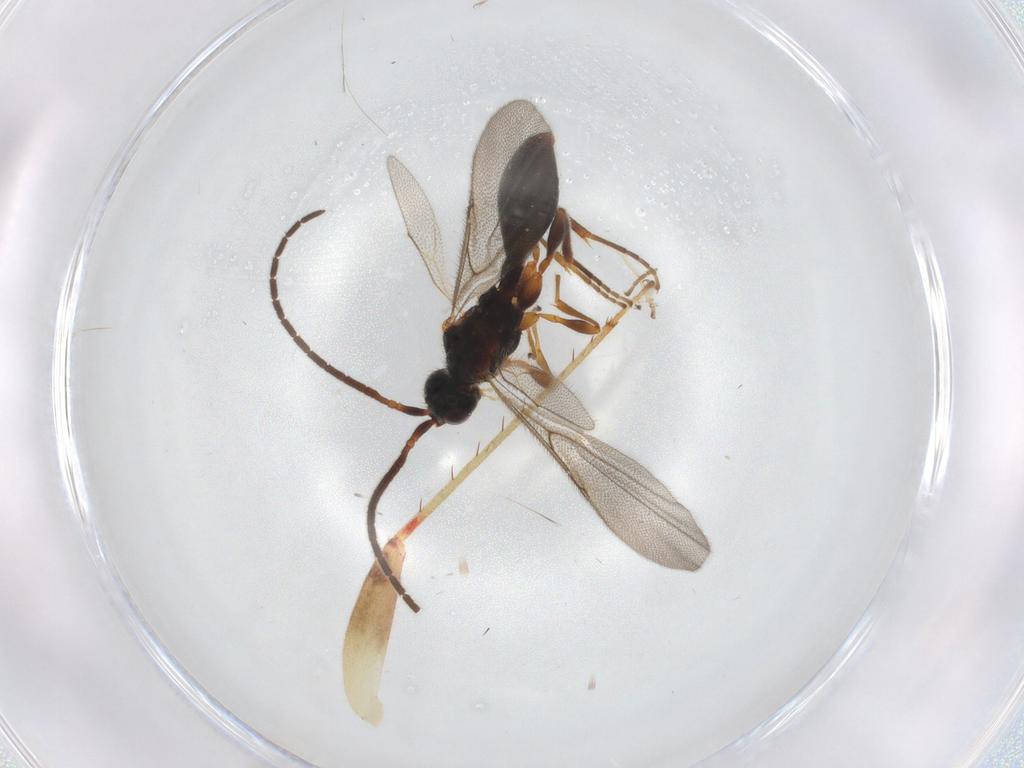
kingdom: Animalia
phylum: Arthropoda
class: Insecta
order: Hymenoptera
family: Diapriidae
